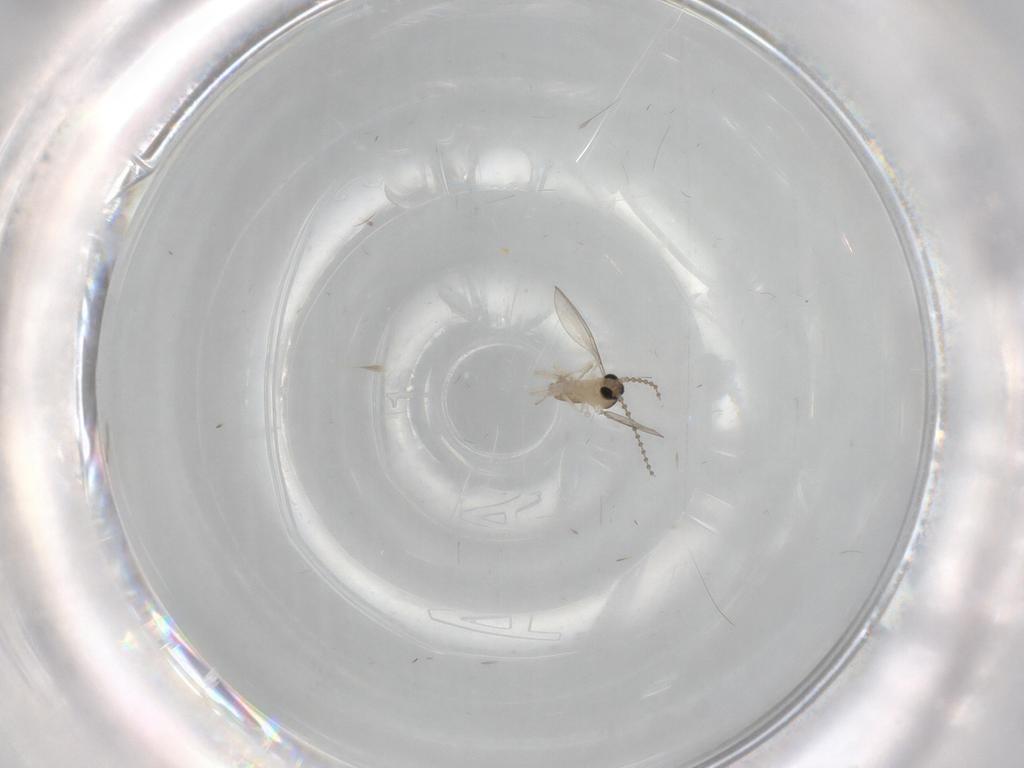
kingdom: Animalia
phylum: Arthropoda
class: Insecta
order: Diptera
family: Cecidomyiidae
